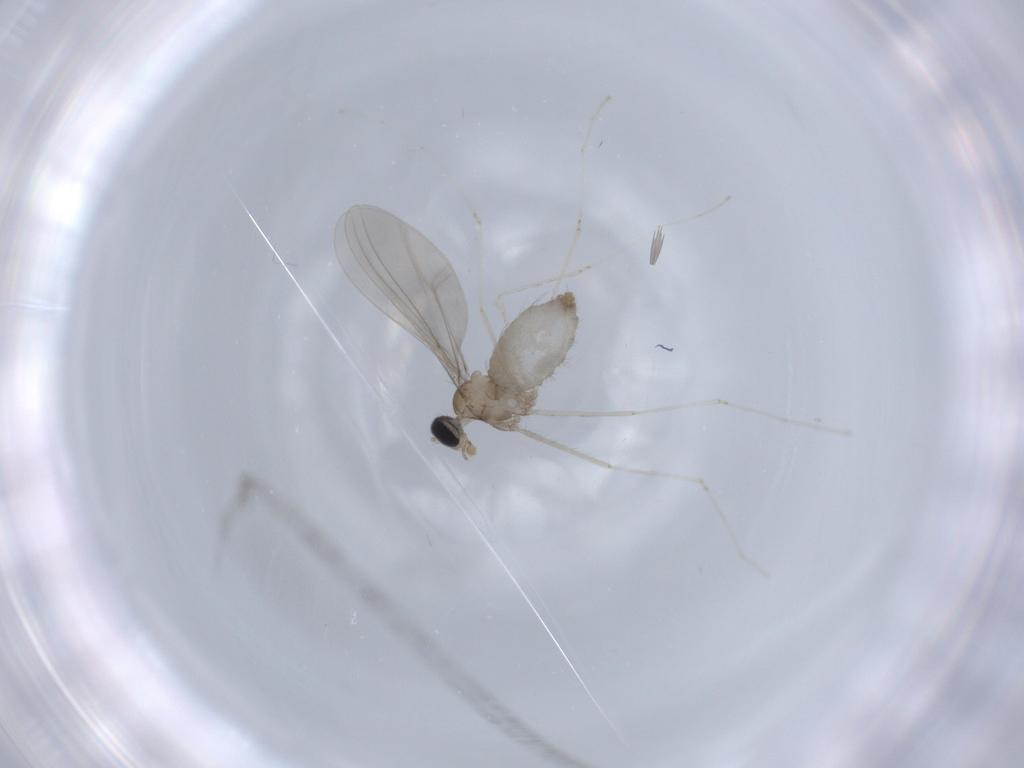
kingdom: Animalia
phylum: Arthropoda
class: Insecta
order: Diptera
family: Cecidomyiidae
